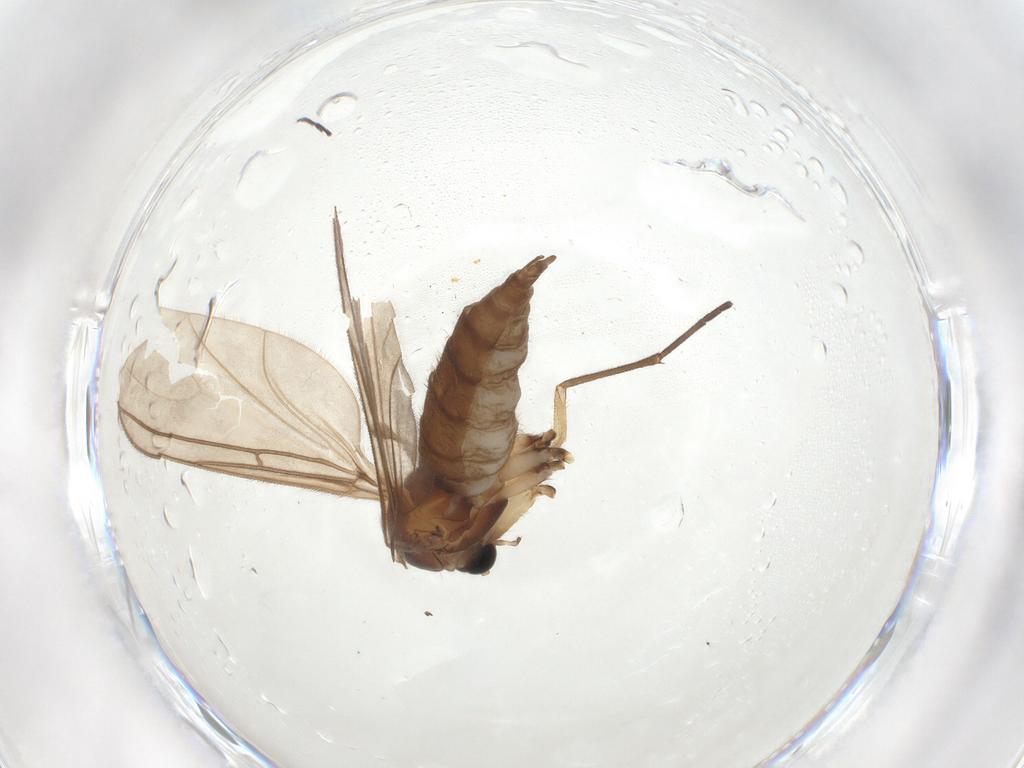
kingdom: Animalia
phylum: Arthropoda
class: Insecta
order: Diptera
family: Sciaridae
